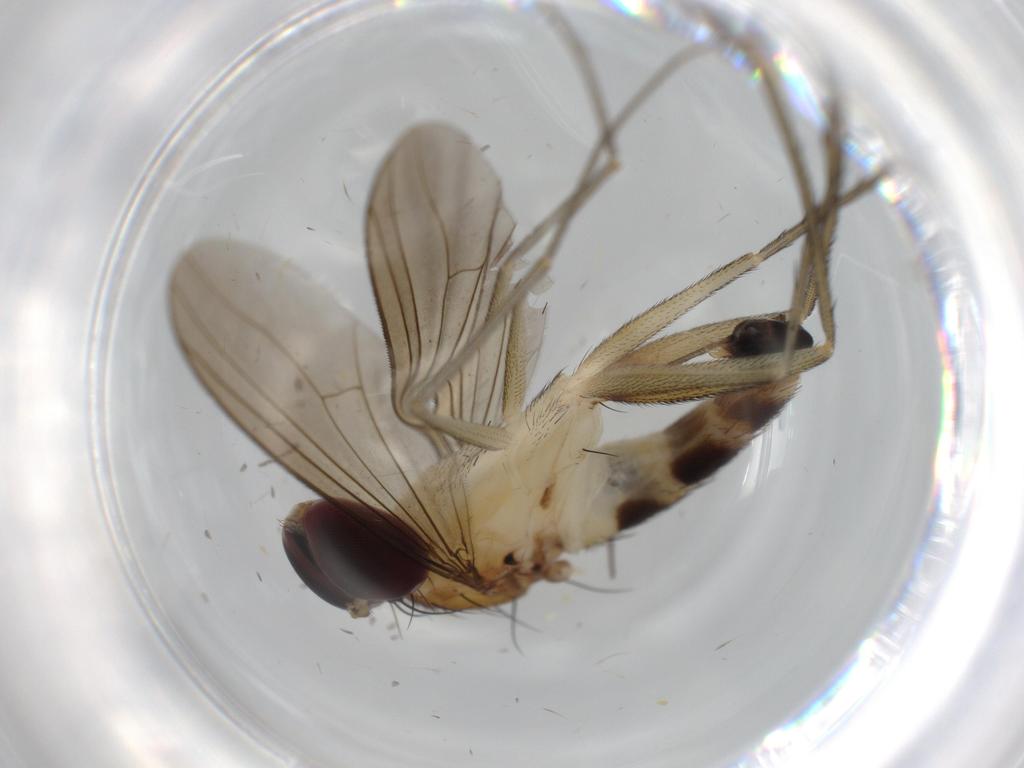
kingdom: Animalia
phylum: Arthropoda
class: Insecta
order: Diptera
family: Dolichopodidae
